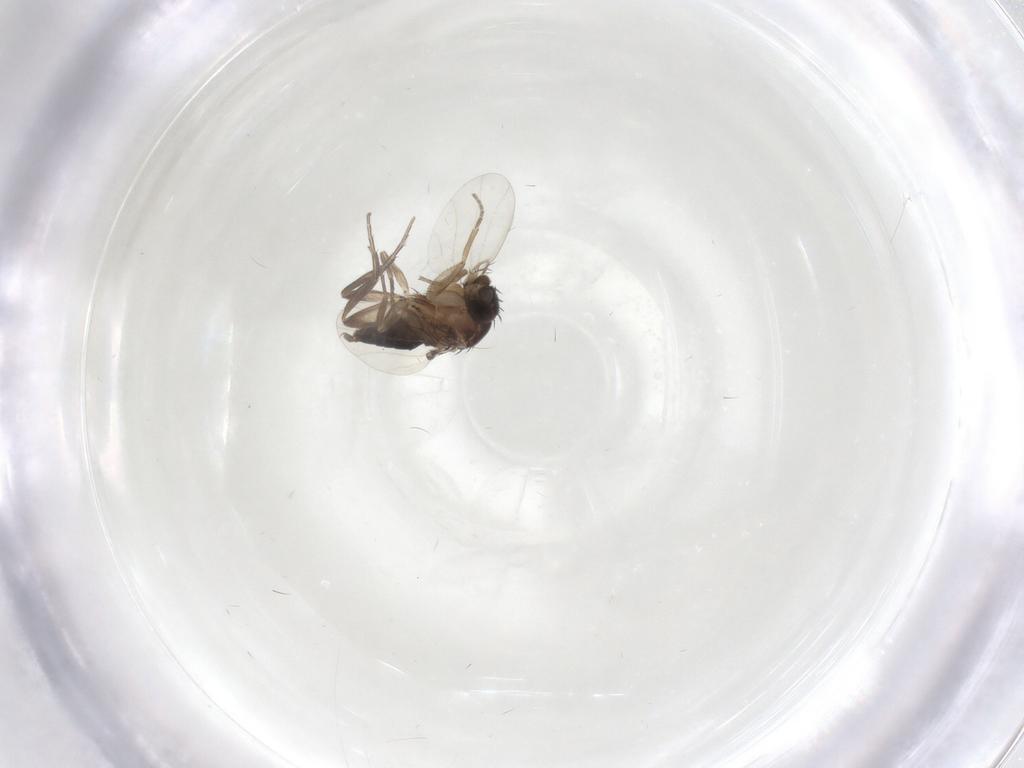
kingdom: Animalia
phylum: Arthropoda
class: Insecta
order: Diptera
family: Phoridae
